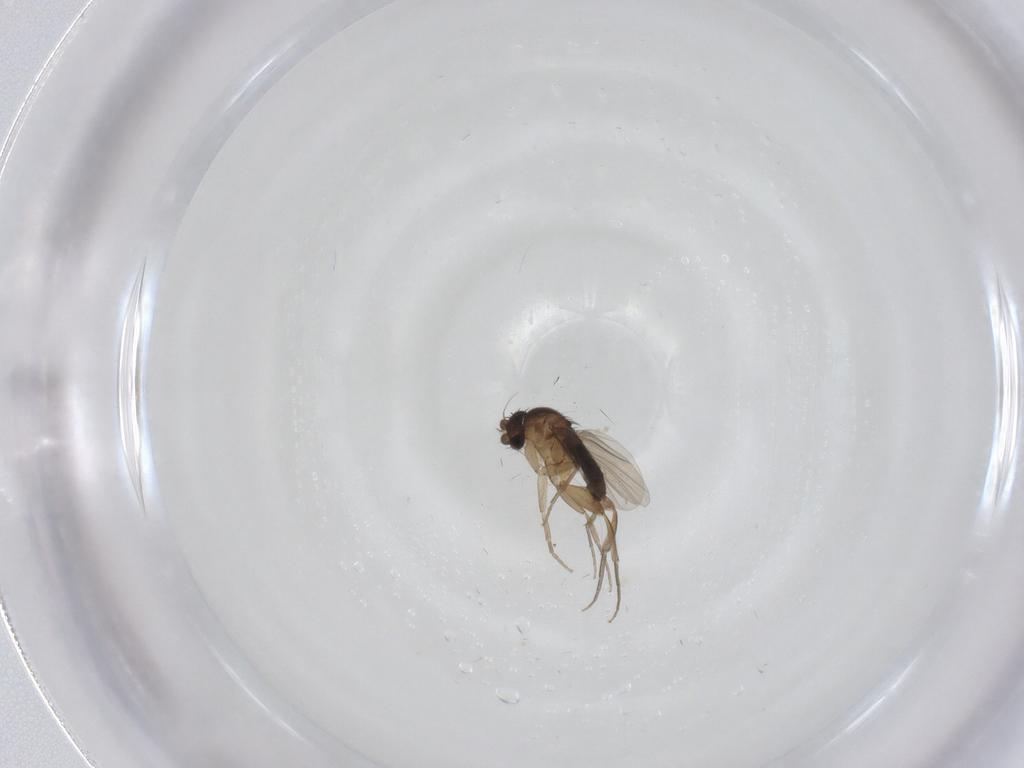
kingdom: Animalia
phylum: Arthropoda
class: Insecta
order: Diptera
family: Phoridae
